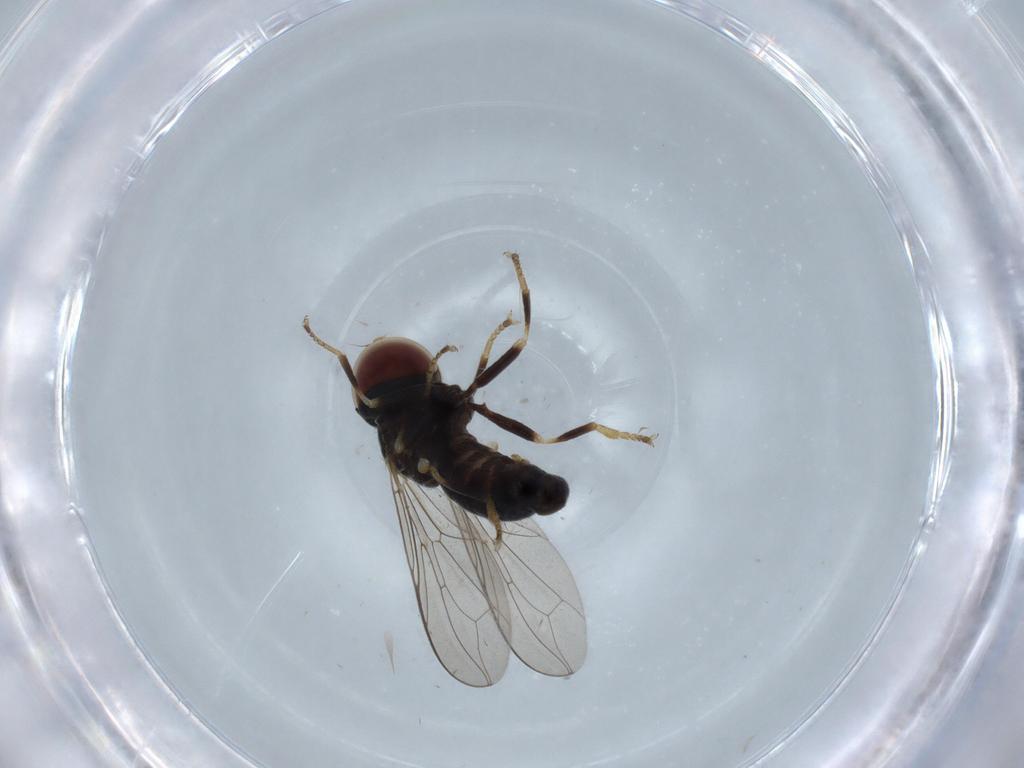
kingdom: Animalia
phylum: Arthropoda
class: Insecta
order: Diptera
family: Pipunculidae
